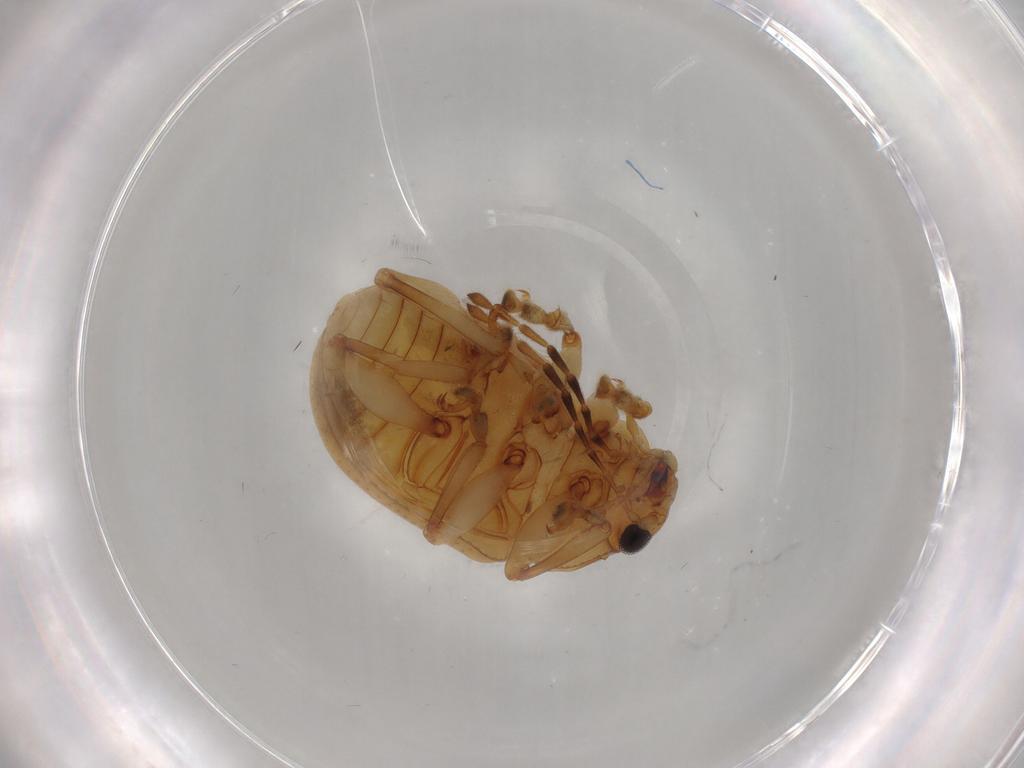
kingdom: Animalia
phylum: Arthropoda
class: Insecta
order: Coleoptera
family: Chrysomelidae
